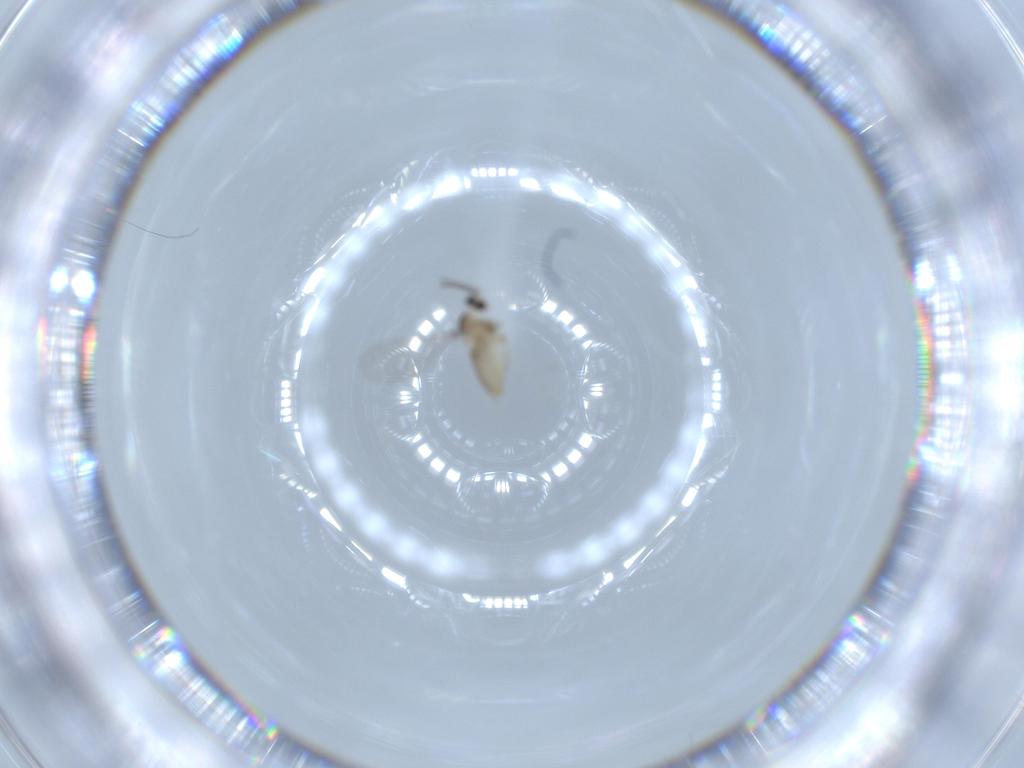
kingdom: Animalia
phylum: Arthropoda
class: Insecta
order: Diptera
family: Cecidomyiidae
